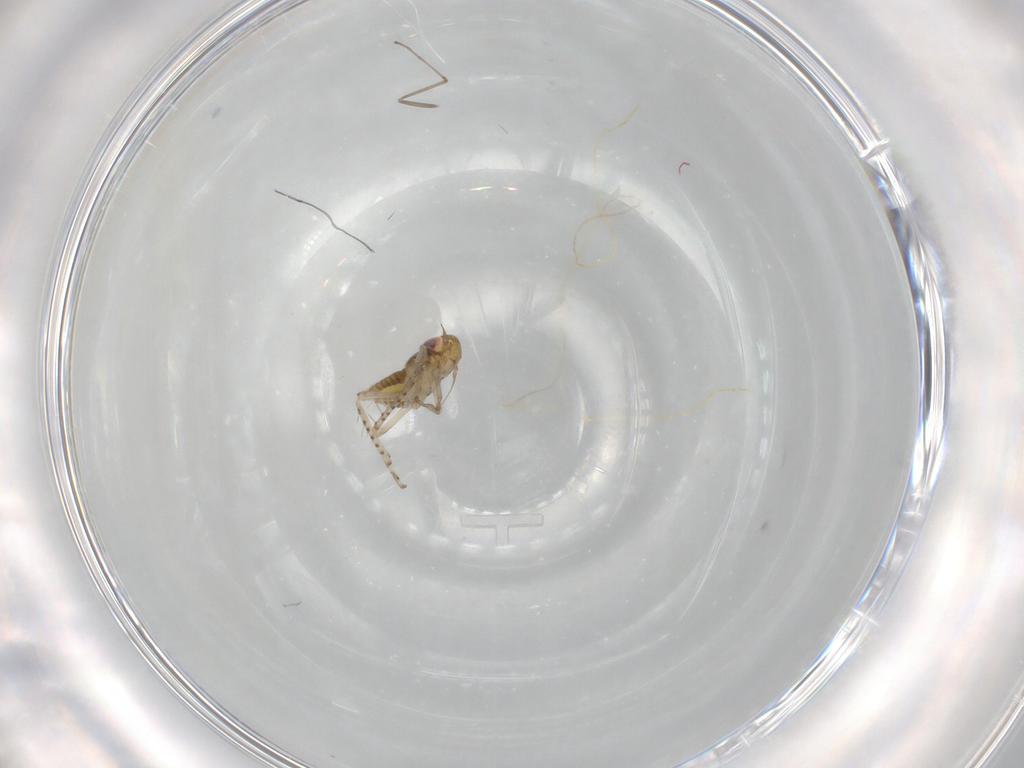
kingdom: Animalia
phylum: Arthropoda
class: Insecta
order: Hemiptera
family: Cicadellidae
